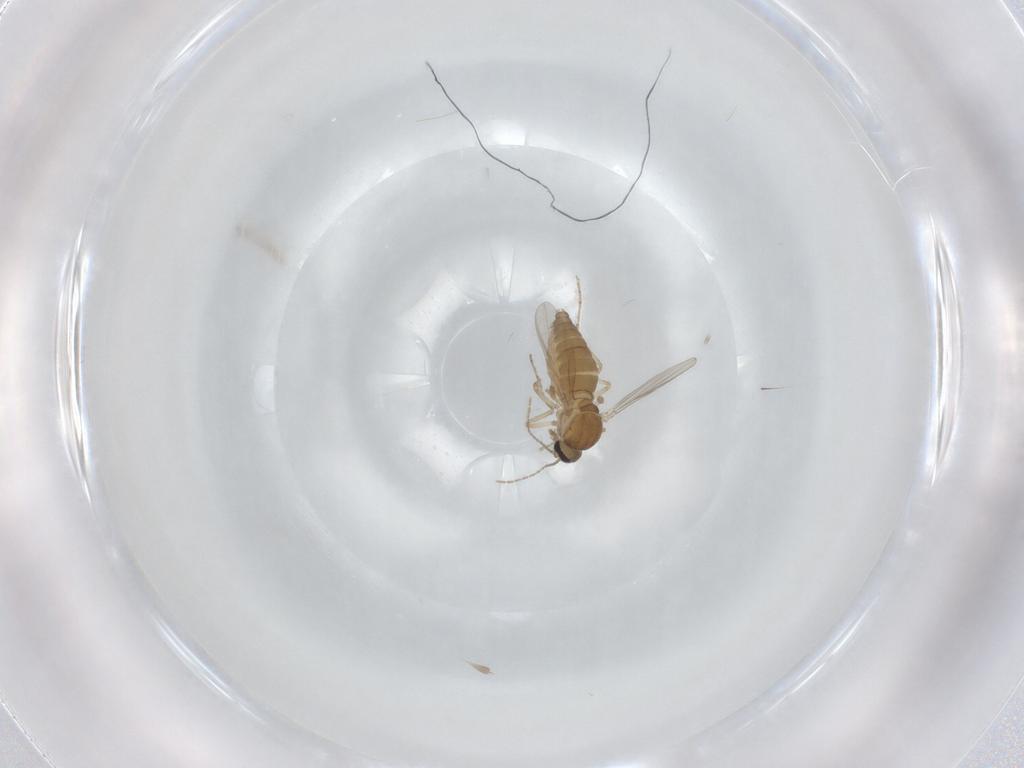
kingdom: Animalia
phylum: Arthropoda
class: Insecta
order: Diptera
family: Ceratopogonidae
